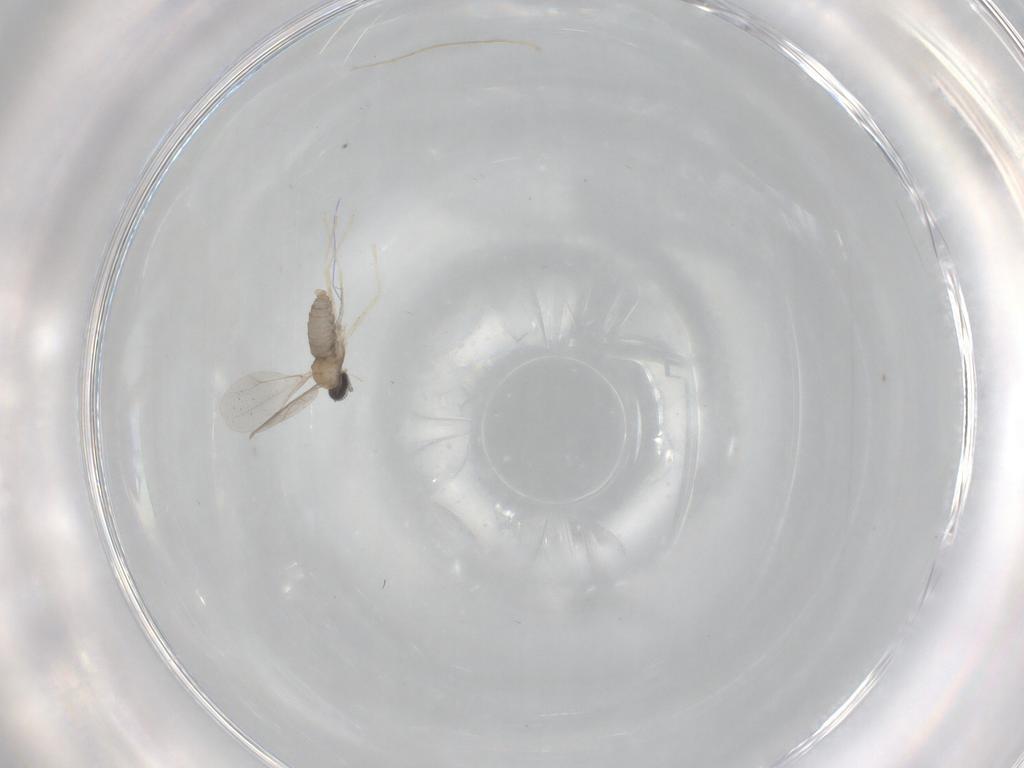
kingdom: Animalia
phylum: Arthropoda
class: Insecta
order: Diptera
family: Cecidomyiidae
